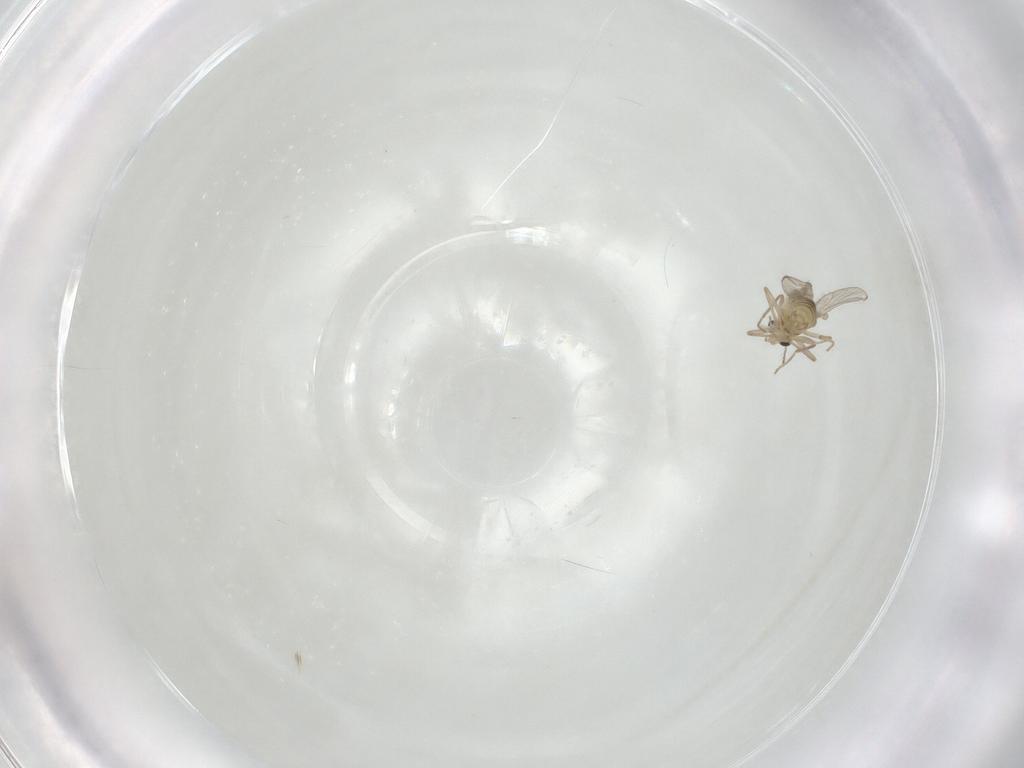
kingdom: Animalia
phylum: Arthropoda
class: Insecta
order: Diptera
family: Chironomidae
